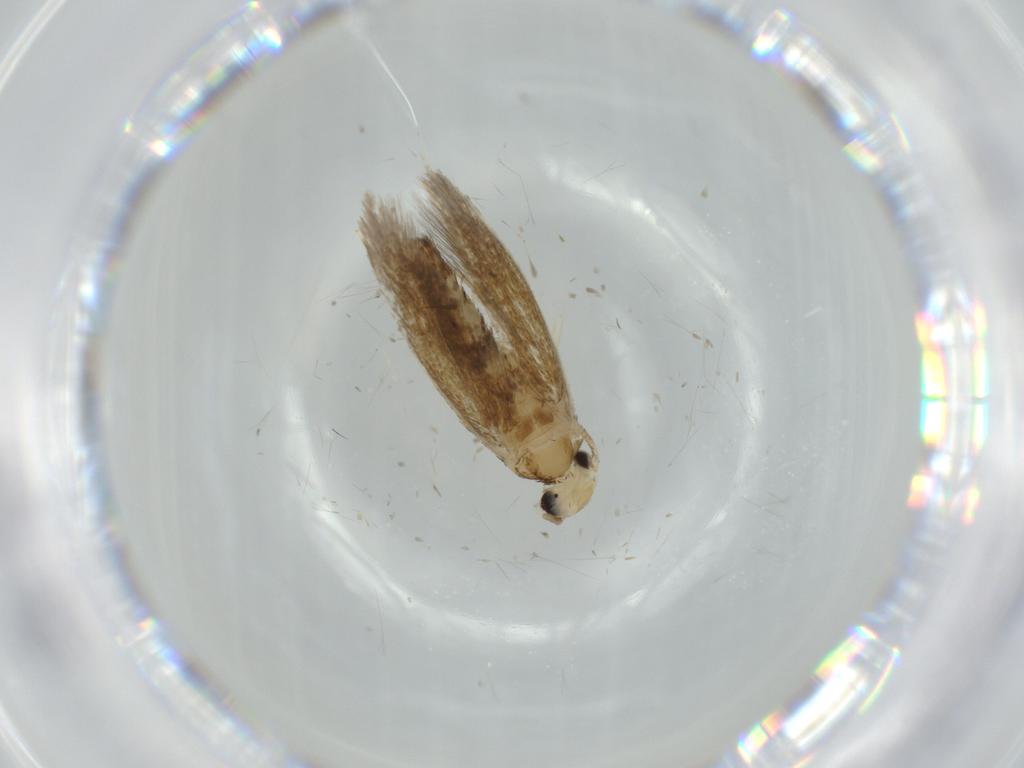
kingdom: Animalia
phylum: Arthropoda
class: Insecta
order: Lepidoptera
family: Tineidae
